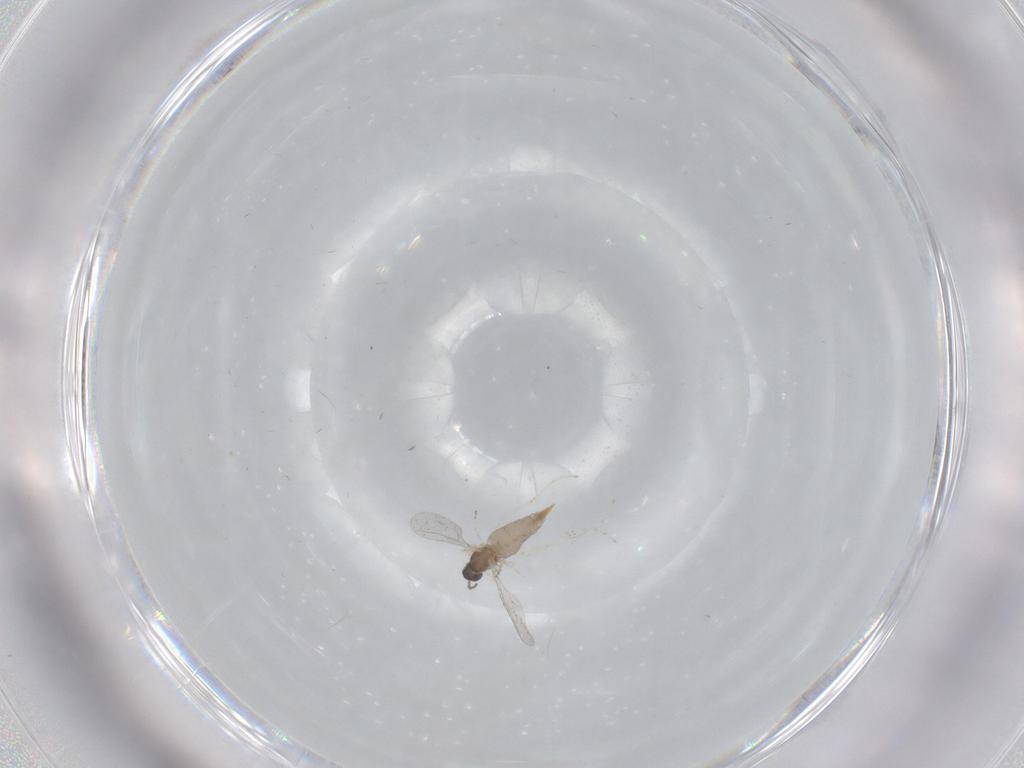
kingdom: Animalia
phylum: Arthropoda
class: Insecta
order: Diptera
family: Cecidomyiidae
